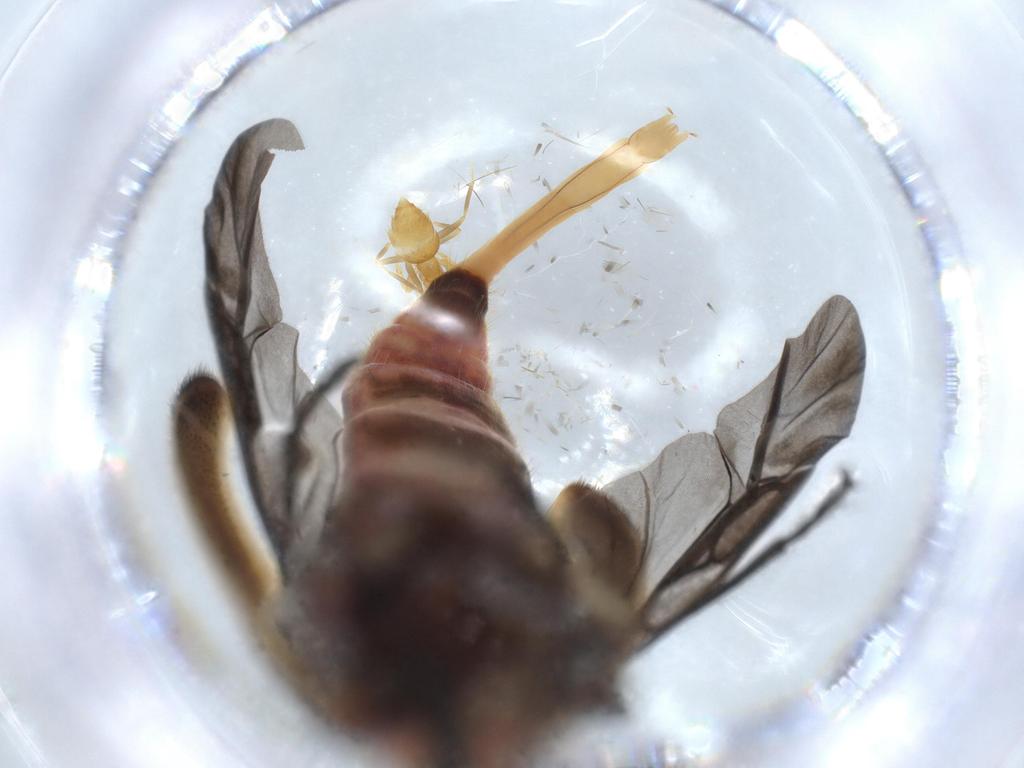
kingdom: Animalia
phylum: Arthropoda
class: Insecta
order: Coleoptera
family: Cleridae
